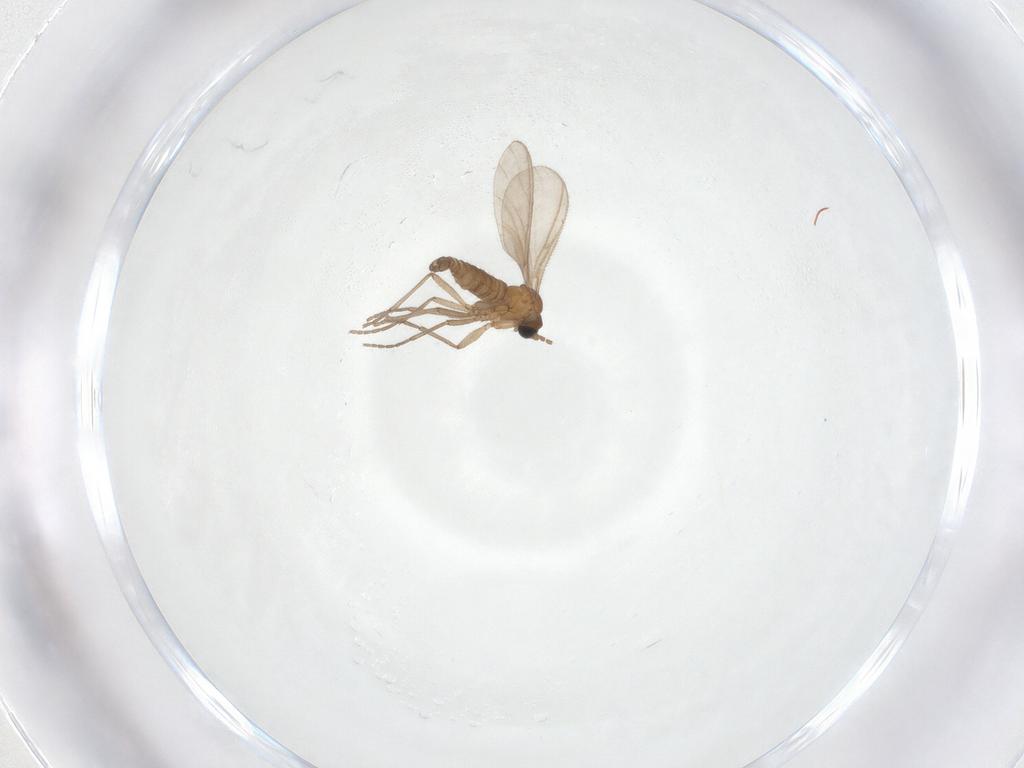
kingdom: Animalia
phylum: Arthropoda
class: Insecta
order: Diptera
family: Sciaridae
